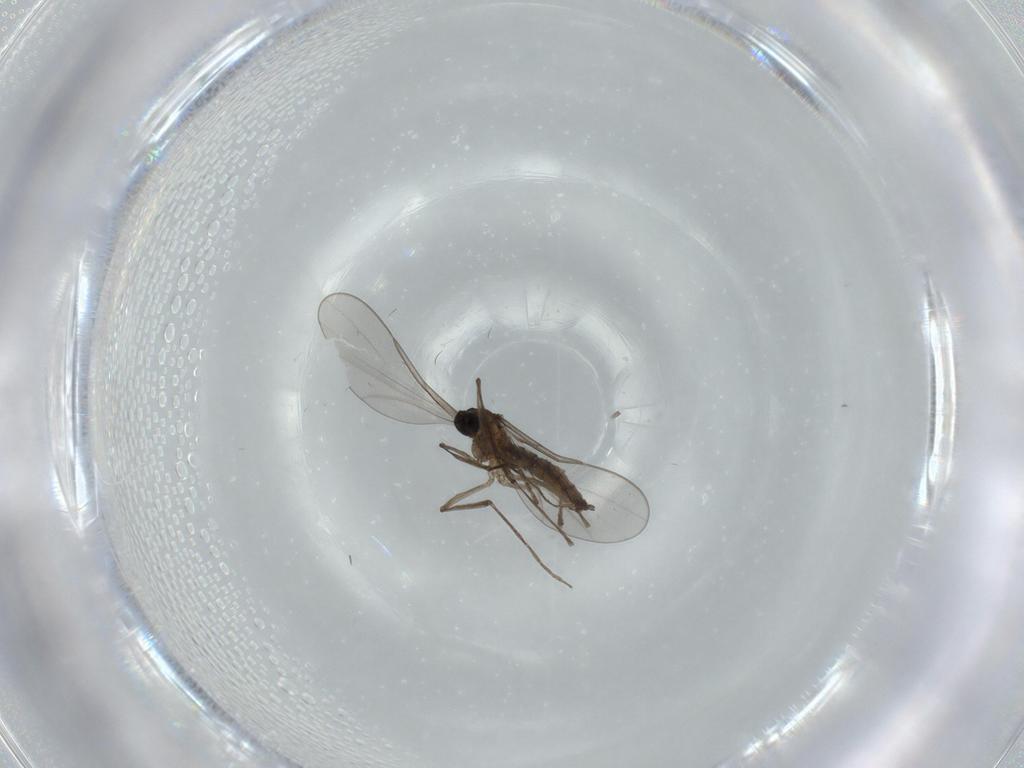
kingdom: Animalia
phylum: Arthropoda
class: Insecta
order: Diptera
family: Cecidomyiidae
